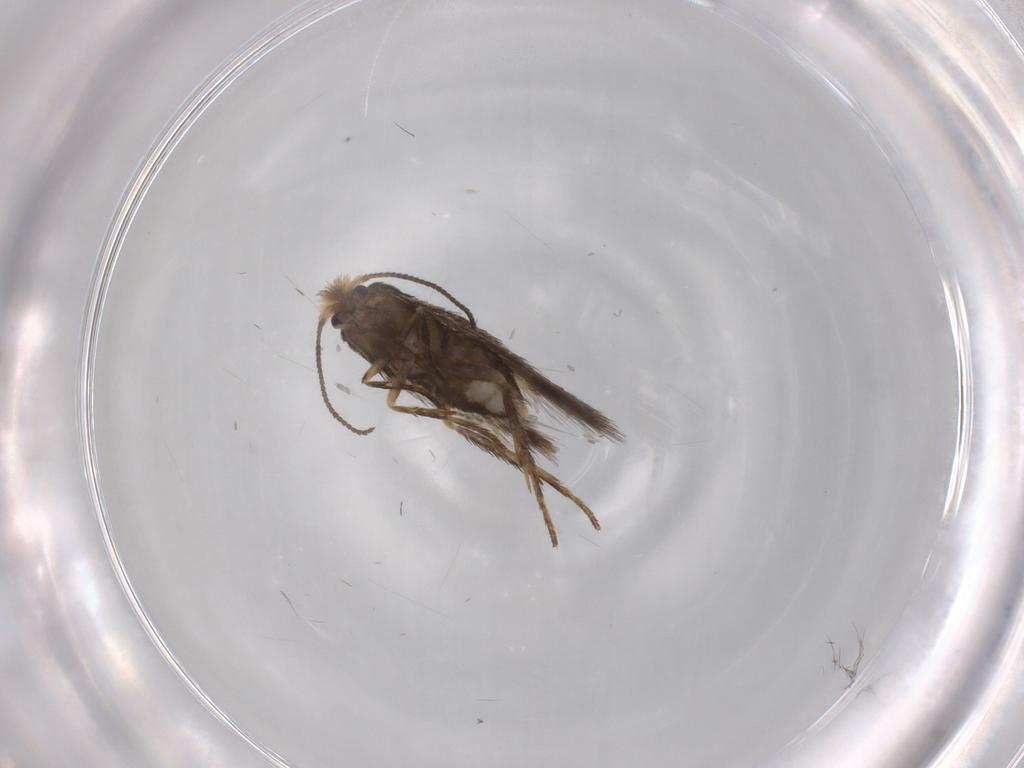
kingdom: Animalia
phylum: Arthropoda
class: Insecta
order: Lepidoptera
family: Nepticulidae
